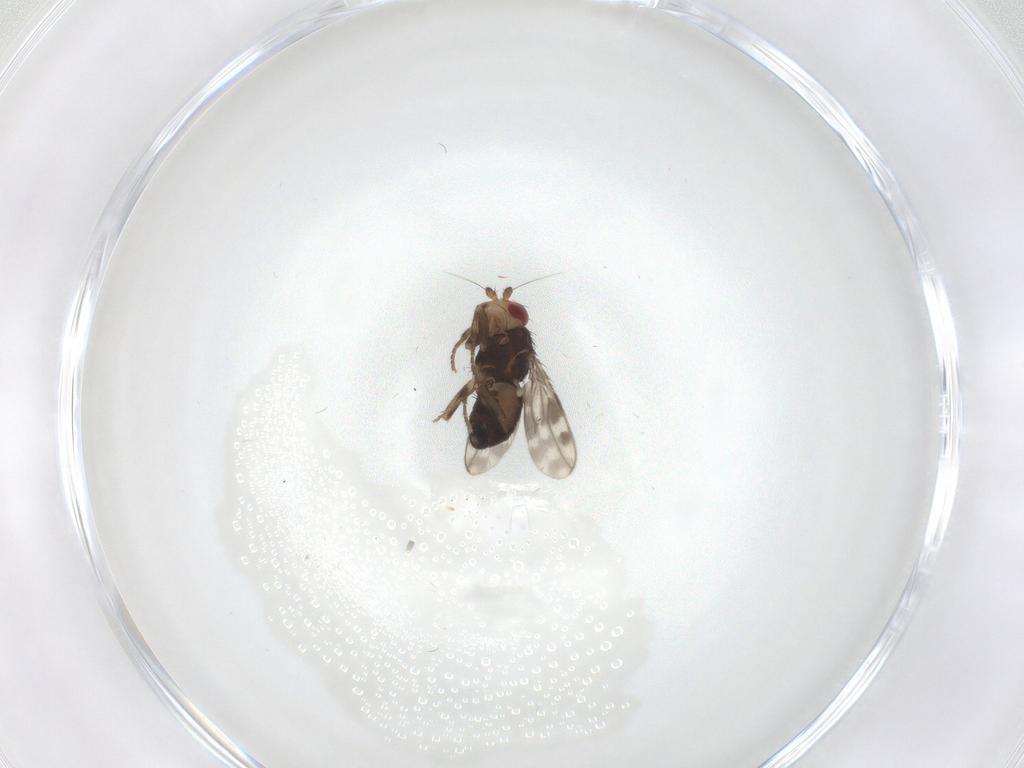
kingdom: Animalia
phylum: Arthropoda
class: Insecta
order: Diptera
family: Sphaeroceridae
